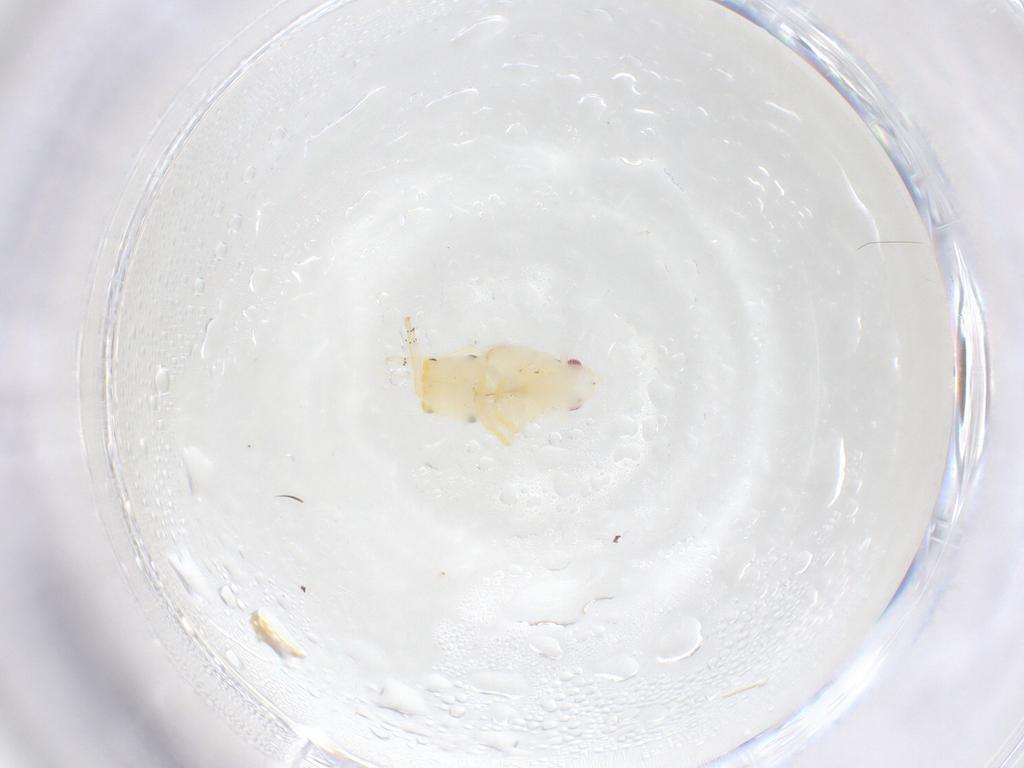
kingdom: Animalia
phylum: Arthropoda
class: Insecta
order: Hemiptera
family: Fulgoroidea_incertae_sedis
